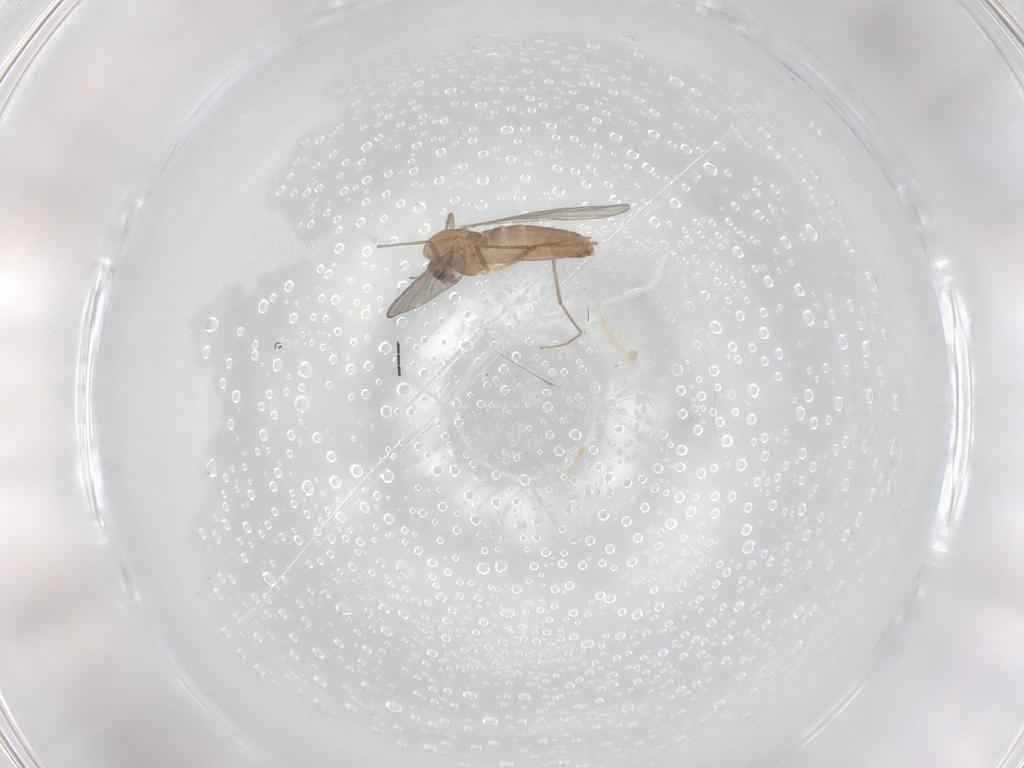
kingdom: Animalia
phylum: Arthropoda
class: Insecta
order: Diptera
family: Chironomidae
